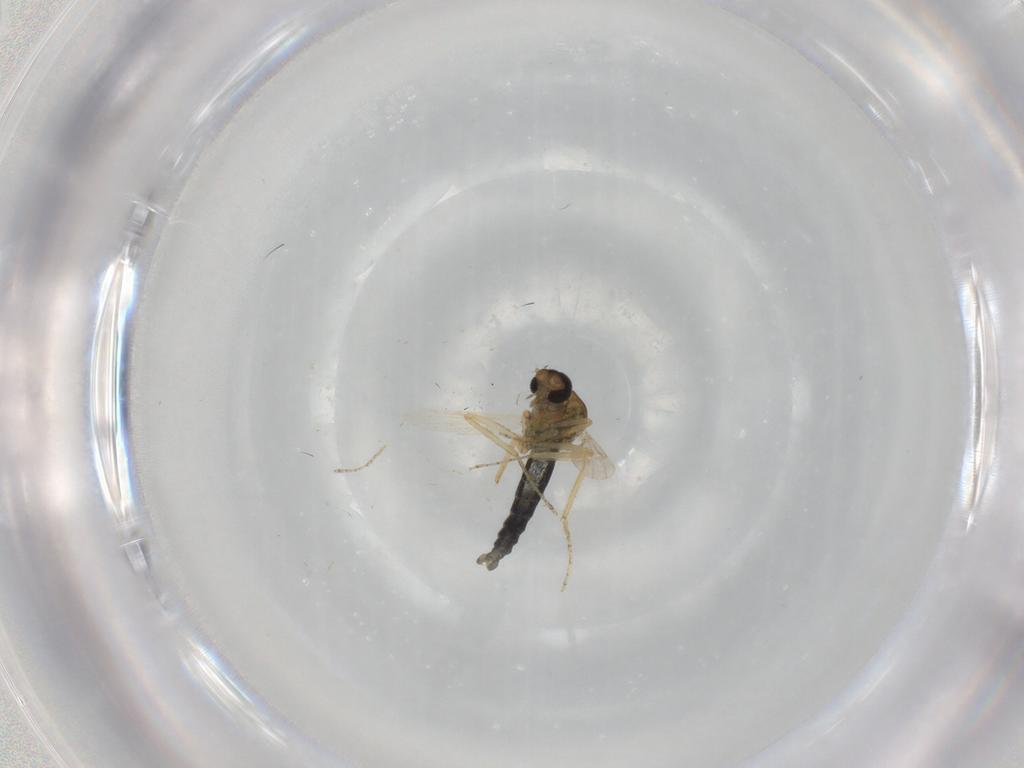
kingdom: Animalia
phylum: Arthropoda
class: Insecta
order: Diptera
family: Ceratopogonidae
